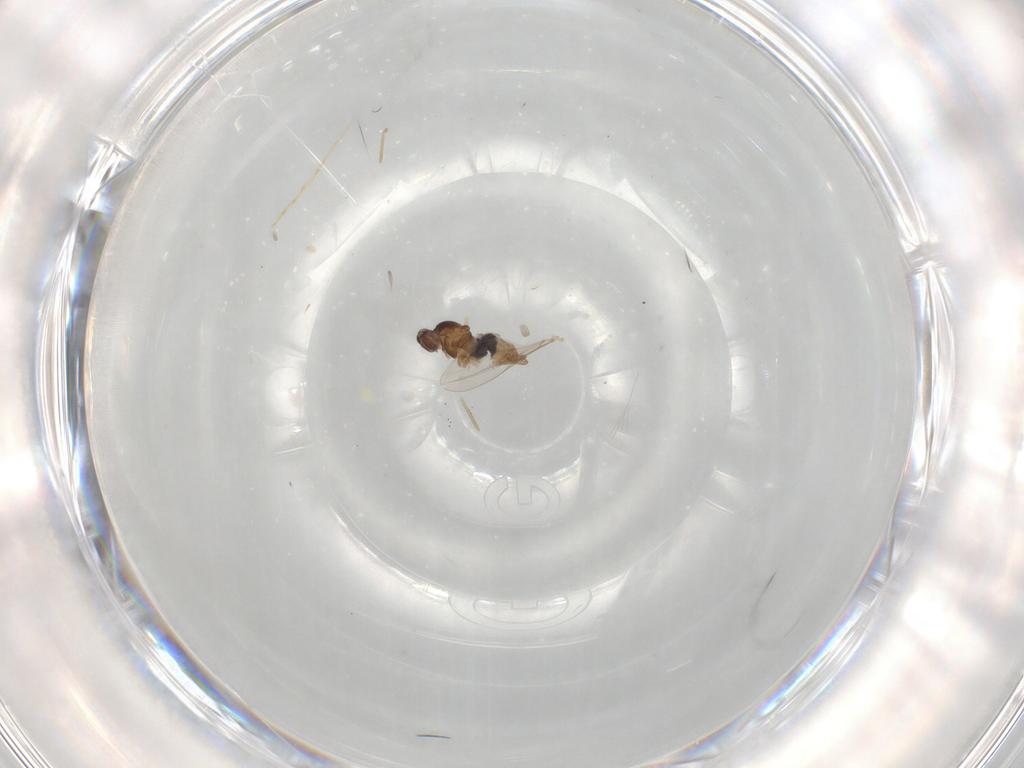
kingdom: Animalia
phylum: Arthropoda
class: Insecta
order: Diptera
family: Cecidomyiidae
